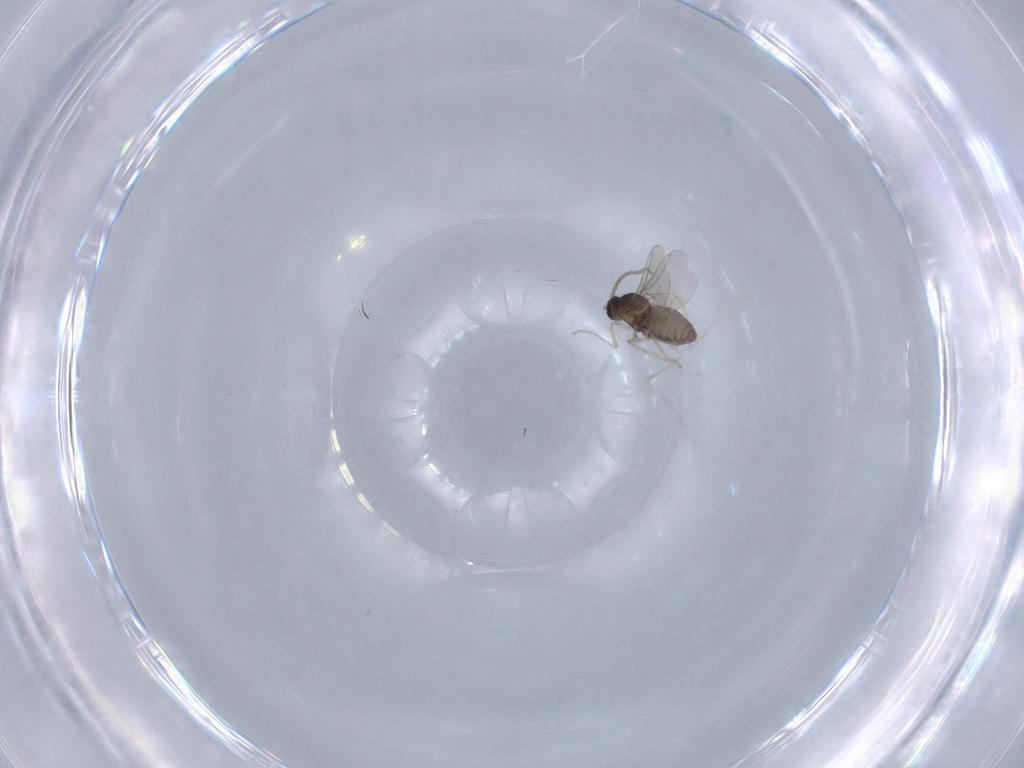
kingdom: Animalia
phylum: Arthropoda
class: Insecta
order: Diptera
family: Cecidomyiidae
